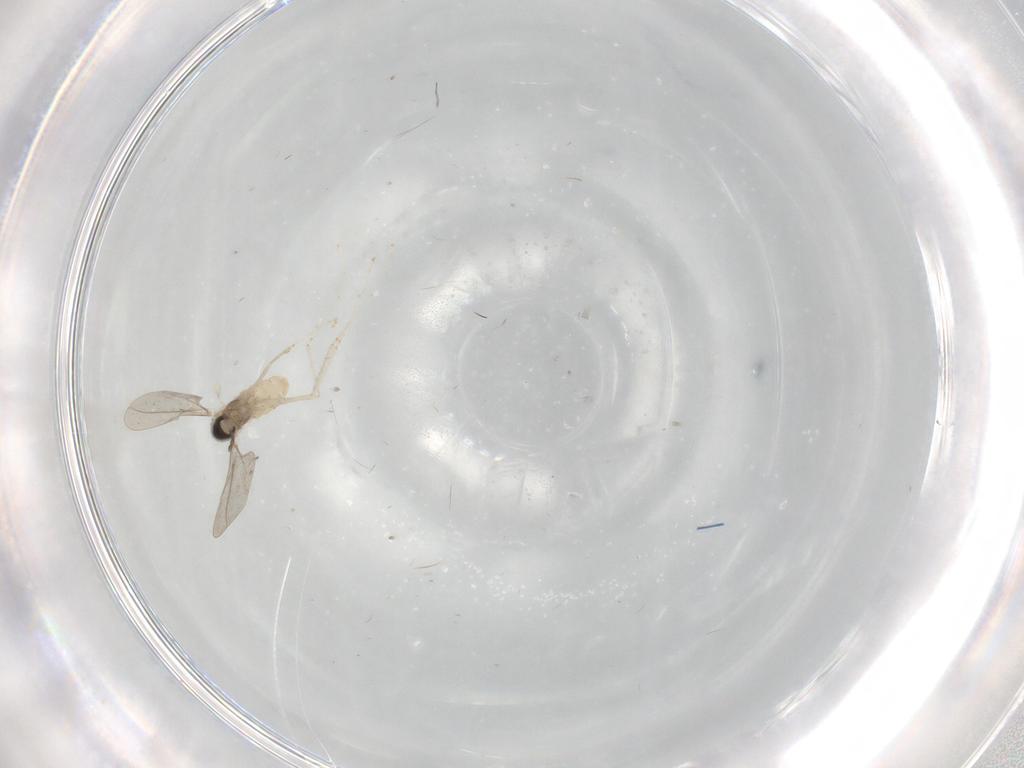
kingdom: Animalia
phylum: Arthropoda
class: Insecta
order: Diptera
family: Cecidomyiidae
